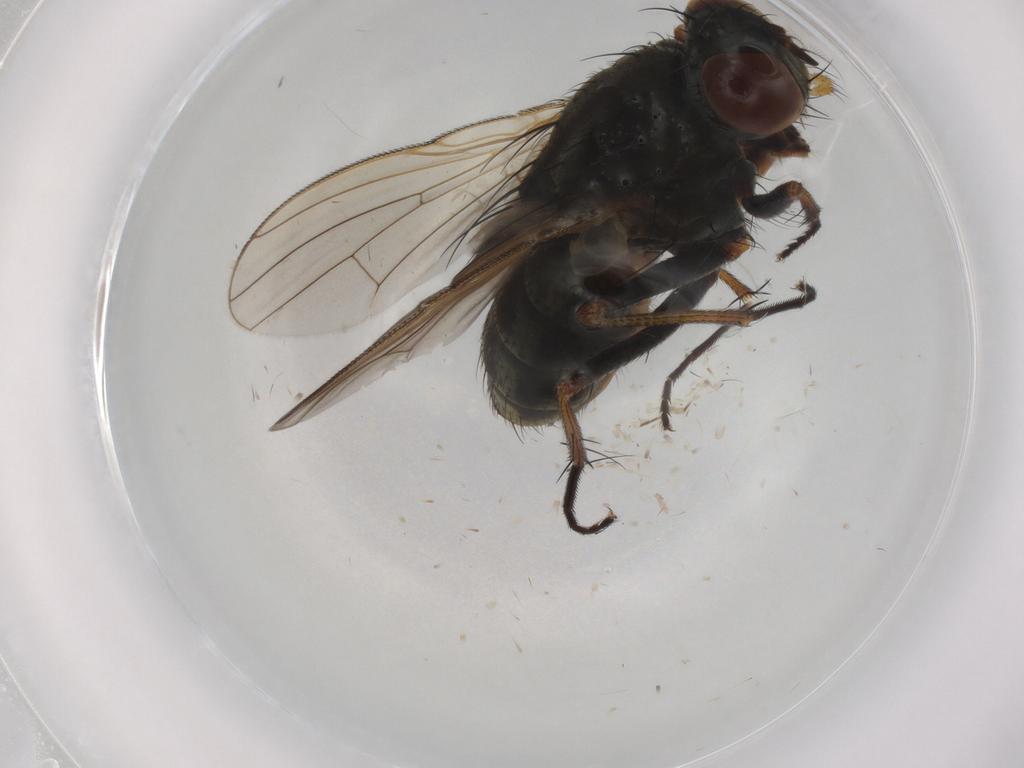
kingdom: Animalia
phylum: Arthropoda
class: Insecta
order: Diptera
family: Muscidae
